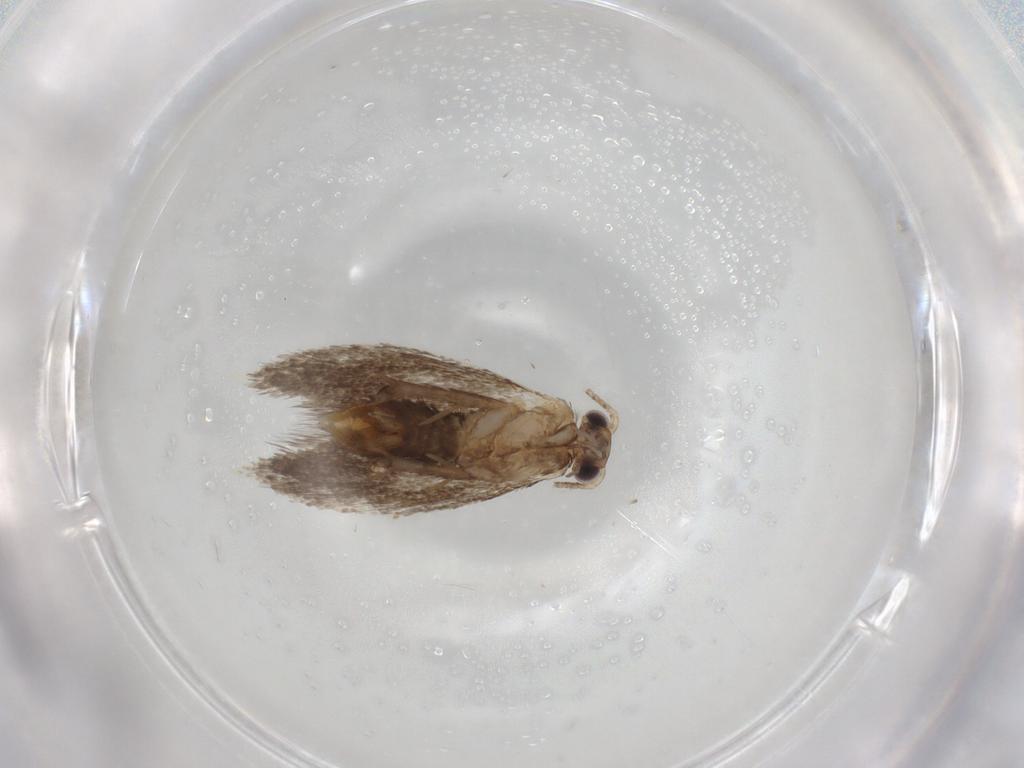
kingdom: Animalia
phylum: Arthropoda
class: Insecta
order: Lepidoptera
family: Tineidae
